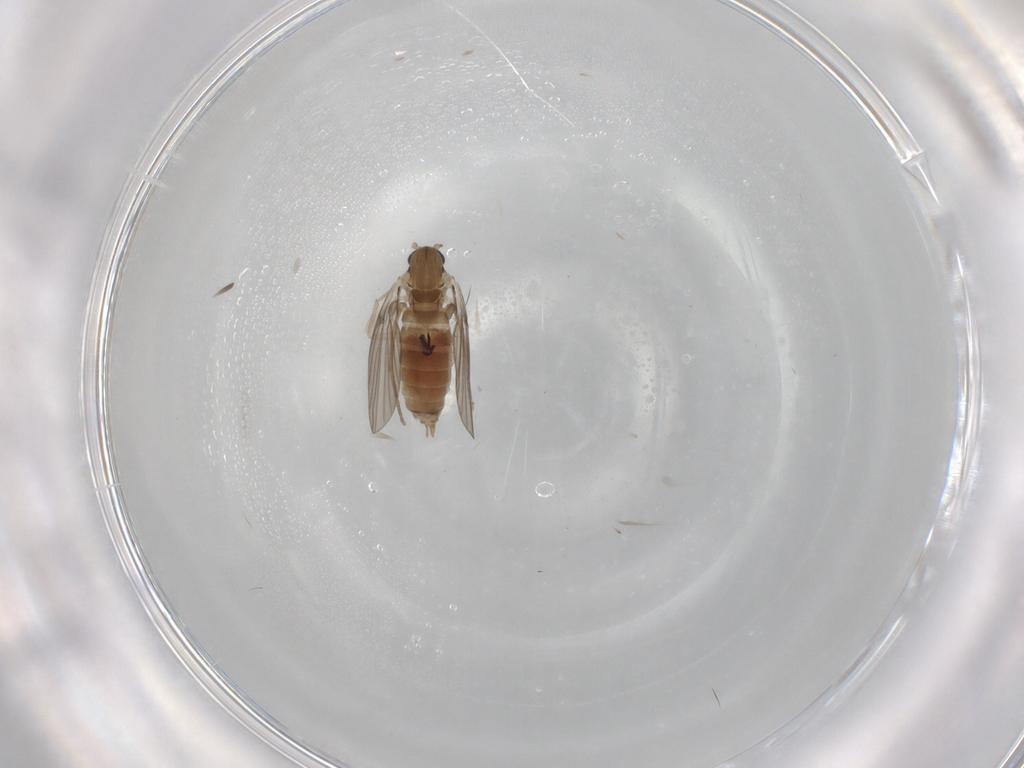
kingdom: Animalia
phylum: Arthropoda
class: Insecta
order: Diptera
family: Dolichopodidae
